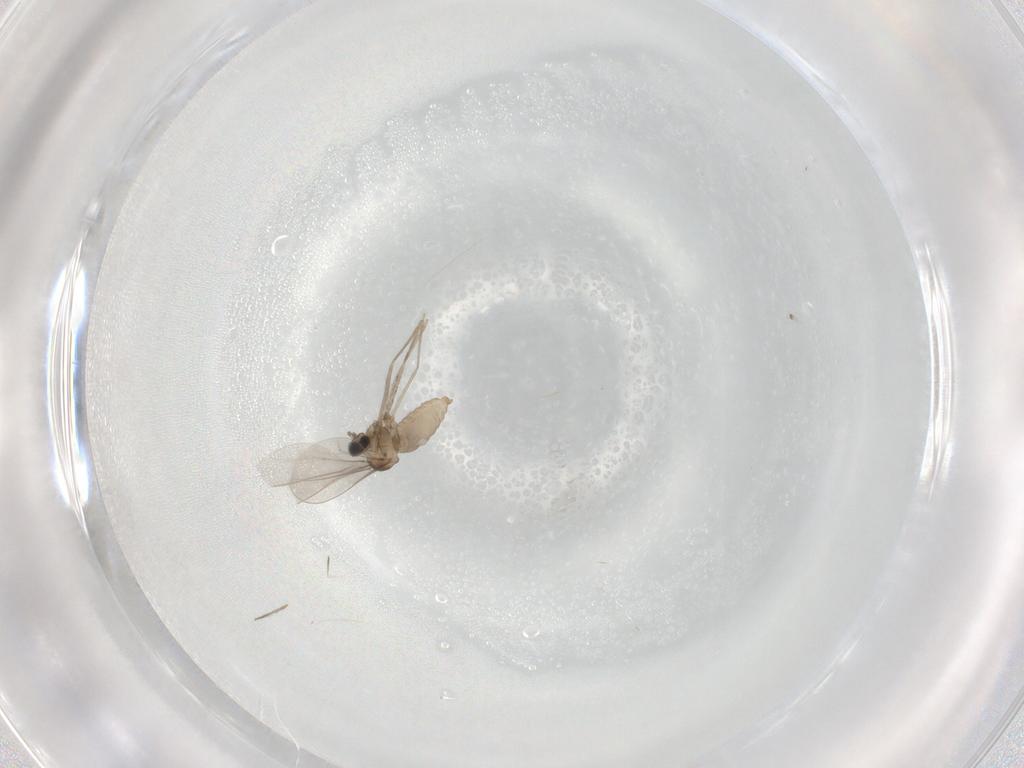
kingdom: Animalia
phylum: Arthropoda
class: Insecta
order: Diptera
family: Cecidomyiidae
